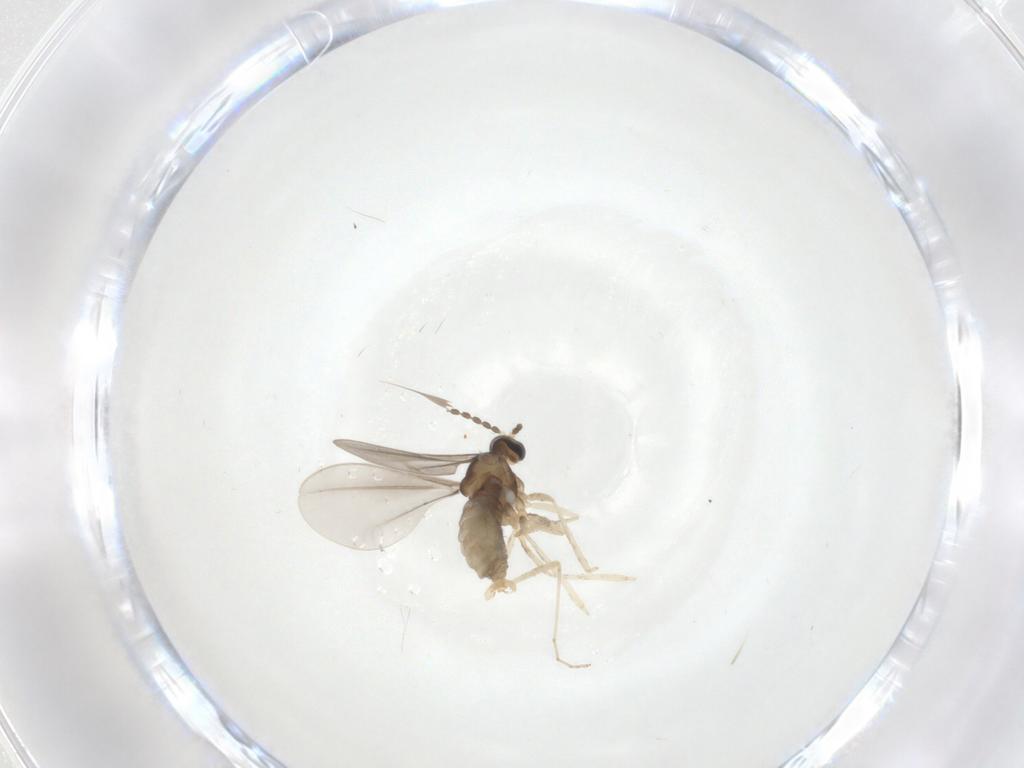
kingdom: Animalia
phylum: Arthropoda
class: Insecta
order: Diptera
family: Cecidomyiidae
